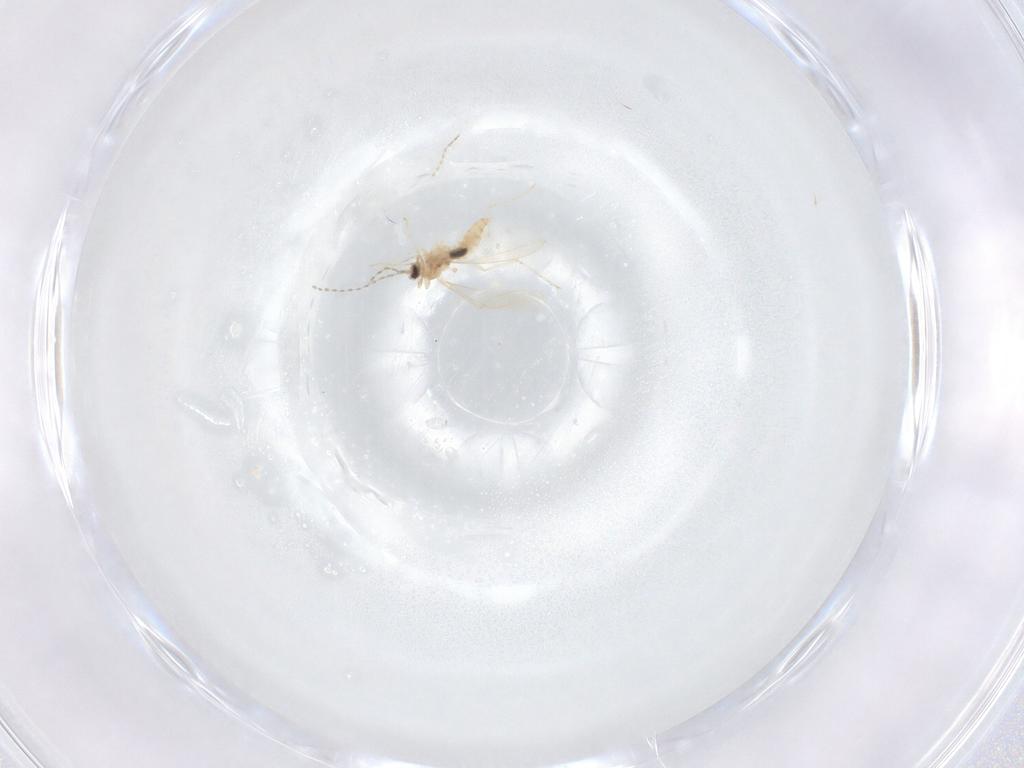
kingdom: Animalia
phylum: Arthropoda
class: Insecta
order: Diptera
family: Cecidomyiidae
